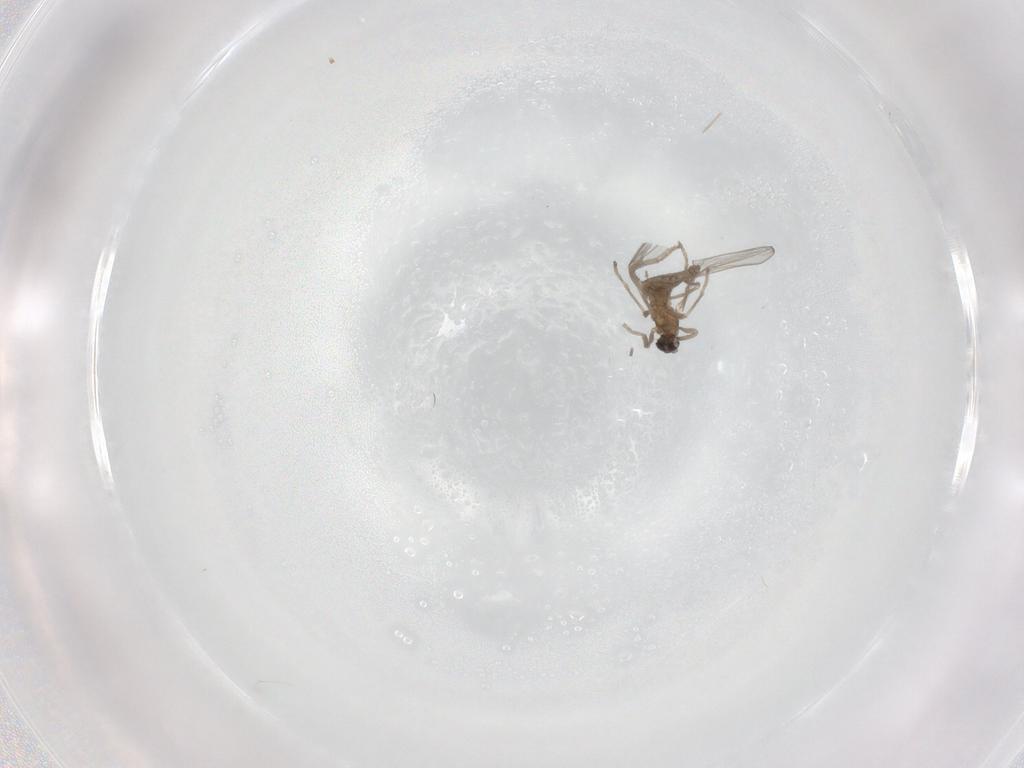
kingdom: Animalia
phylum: Arthropoda
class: Insecta
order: Diptera
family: Cecidomyiidae
